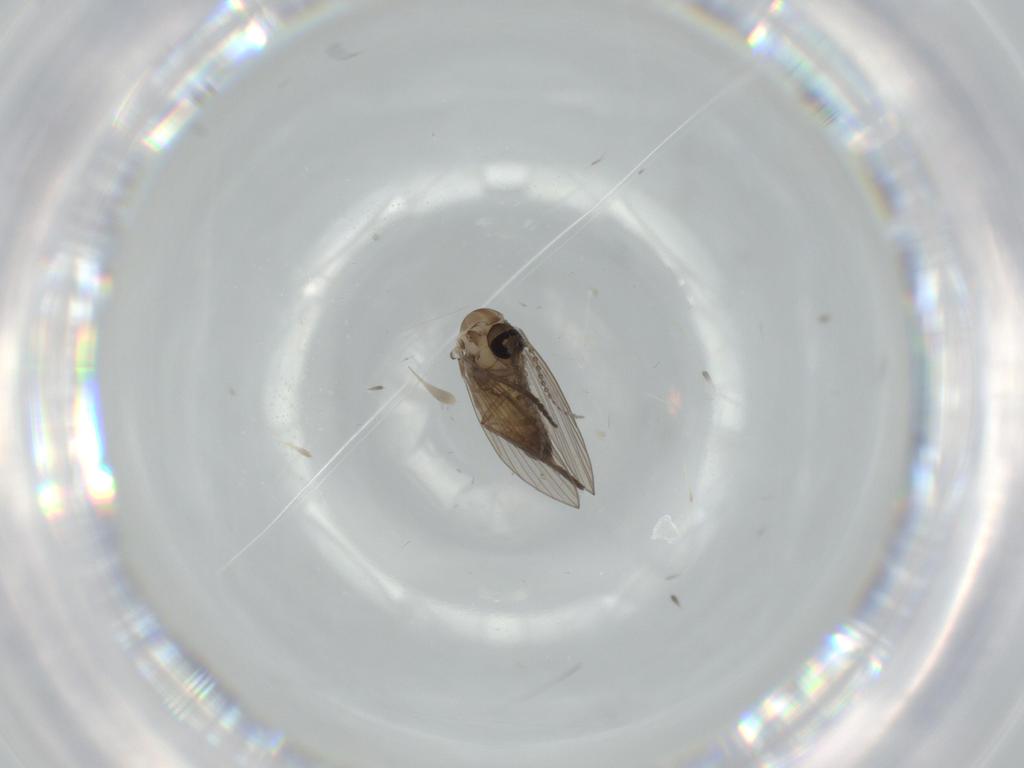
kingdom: Animalia
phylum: Arthropoda
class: Insecta
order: Diptera
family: Psychodidae
